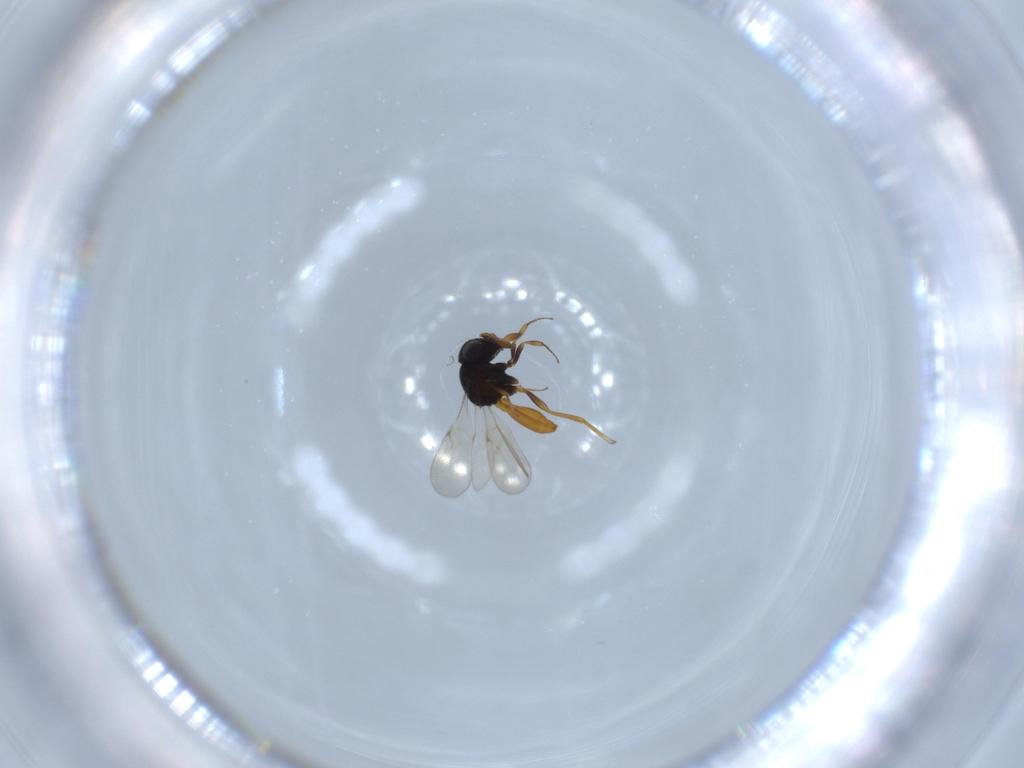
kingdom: Animalia
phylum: Arthropoda
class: Insecta
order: Hymenoptera
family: Scelionidae
